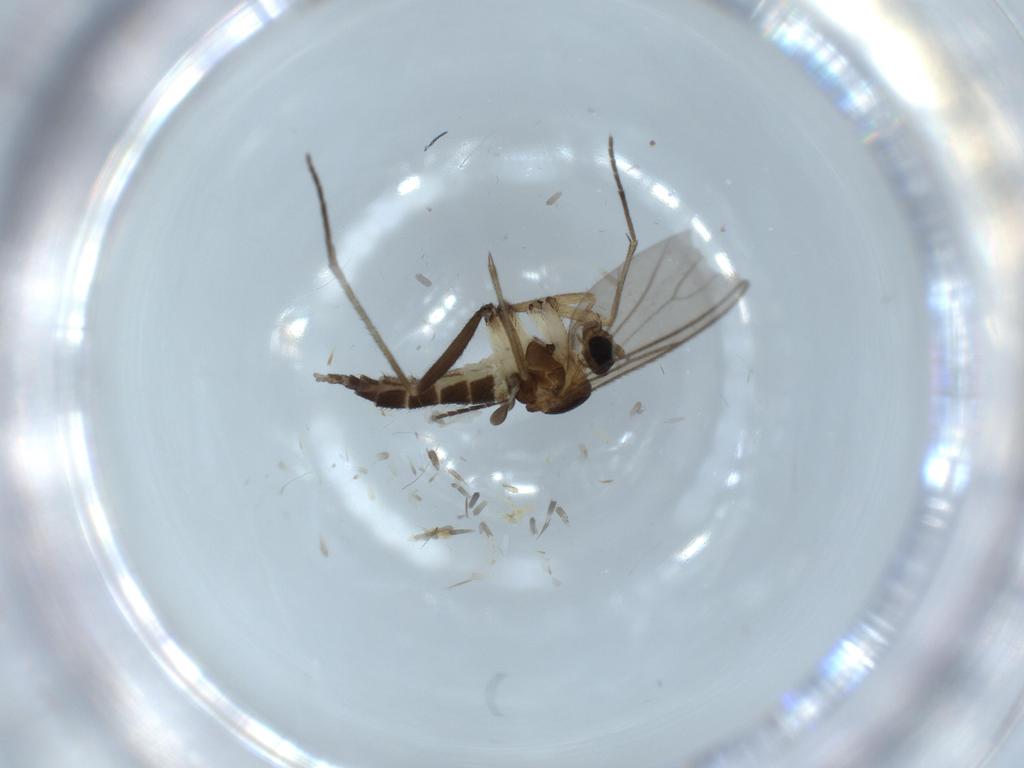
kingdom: Animalia
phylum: Arthropoda
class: Insecta
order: Diptera
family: Sciaridae
